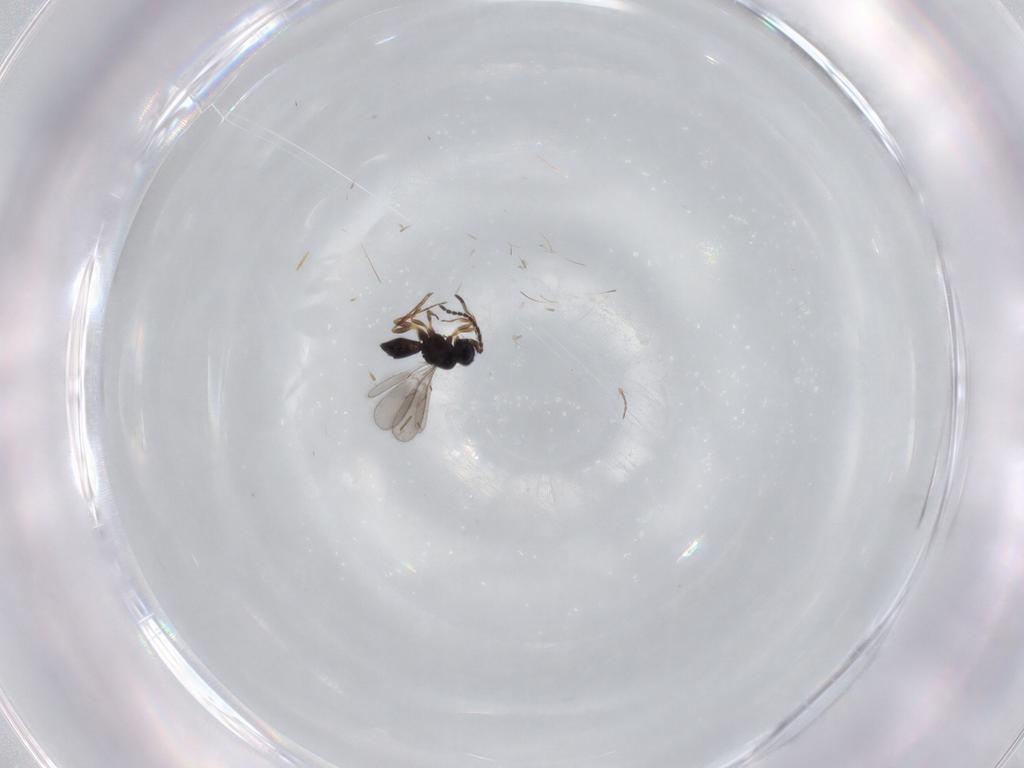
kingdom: Animalia
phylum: Arthropoda
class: Insecta
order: Hymenoptera
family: Scelionidae
